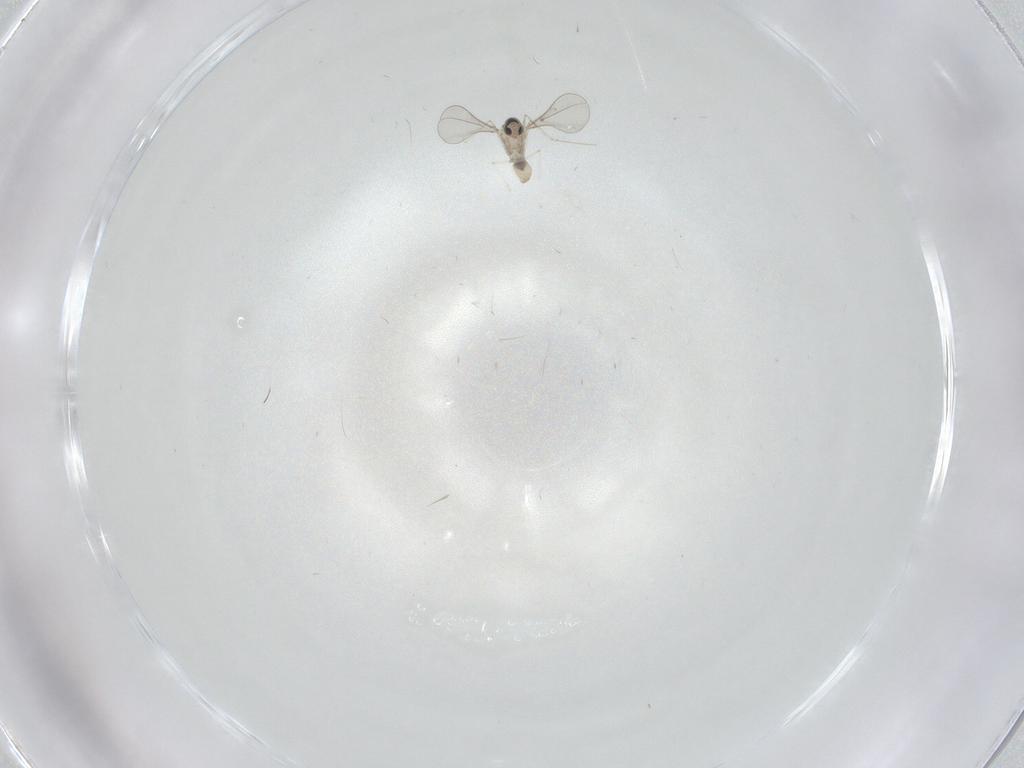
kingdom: Animalia
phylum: Arthropoda
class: Insecta
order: Diptera
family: Cecidomyiidae
